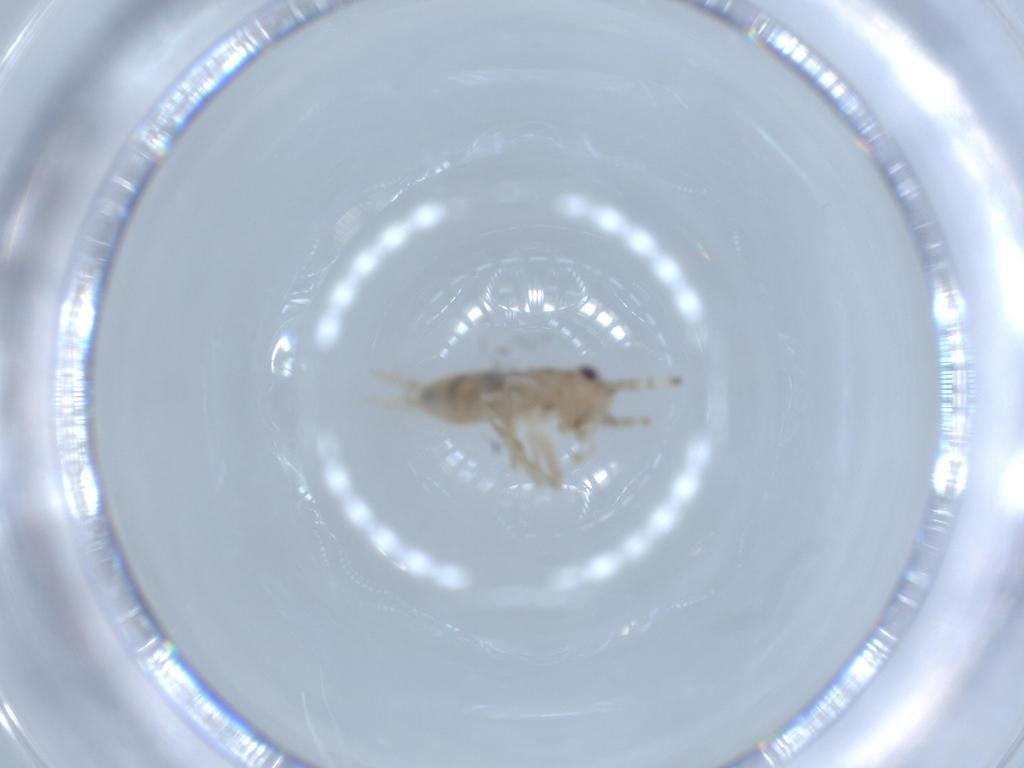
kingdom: Animalia
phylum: Arthropoda
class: Insecta
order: Orthoptera
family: Trigonidiidae
